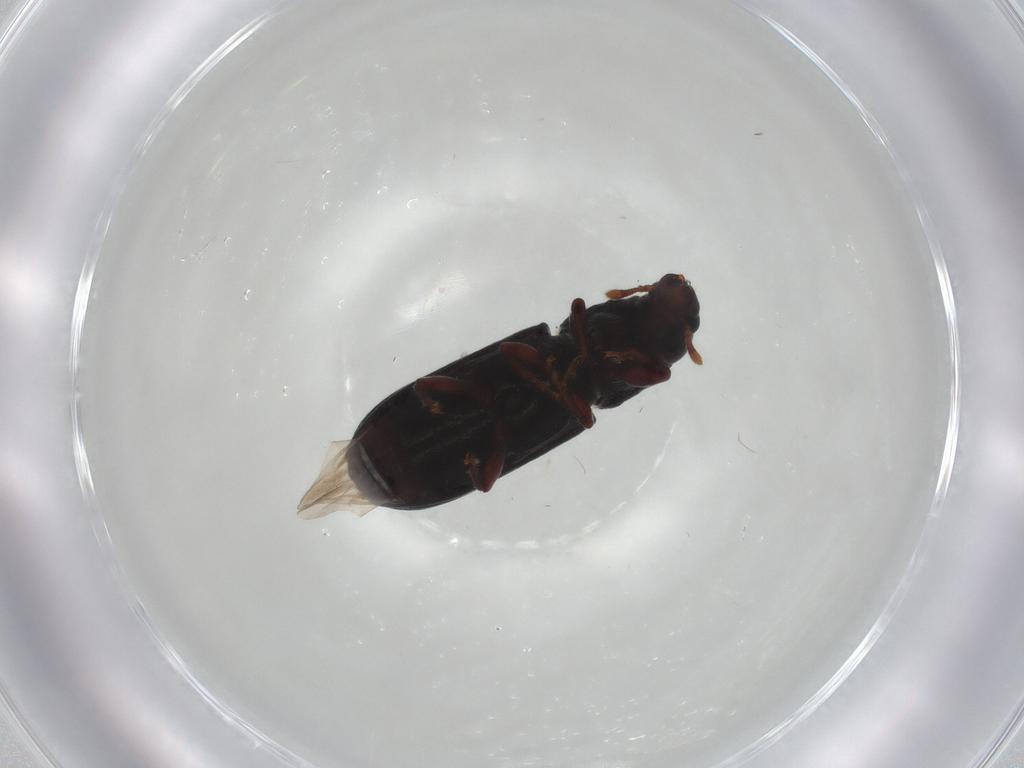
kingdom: Animalia
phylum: Arthropoda
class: Insecta
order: Coleoptera
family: Curculionidae
